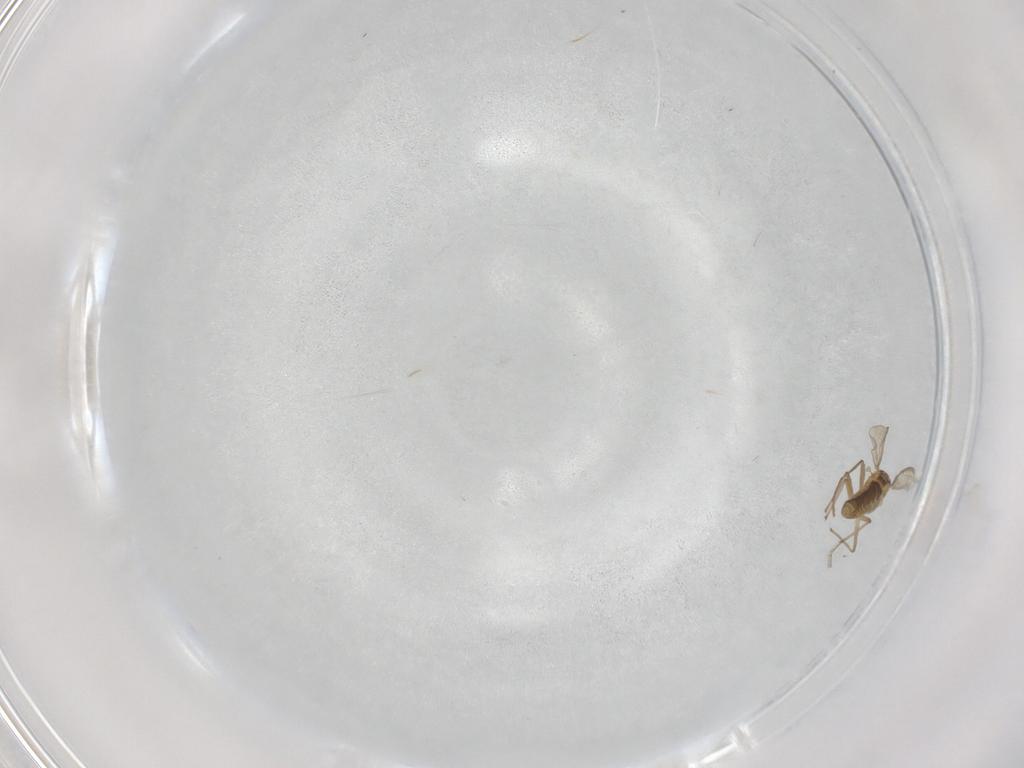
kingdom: Animalia
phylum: Arthropoda
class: Insecta
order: Diptera
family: Chironomidae
